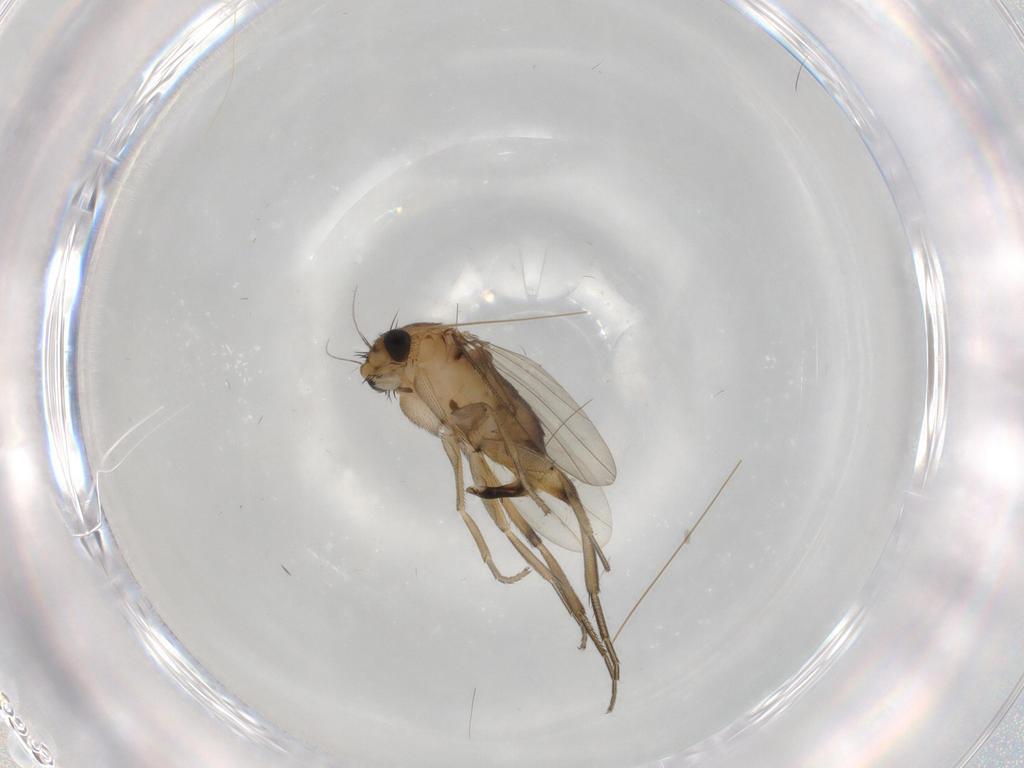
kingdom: Animalia
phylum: Arthropoda
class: Insecta
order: Diptera
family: Phoridae
